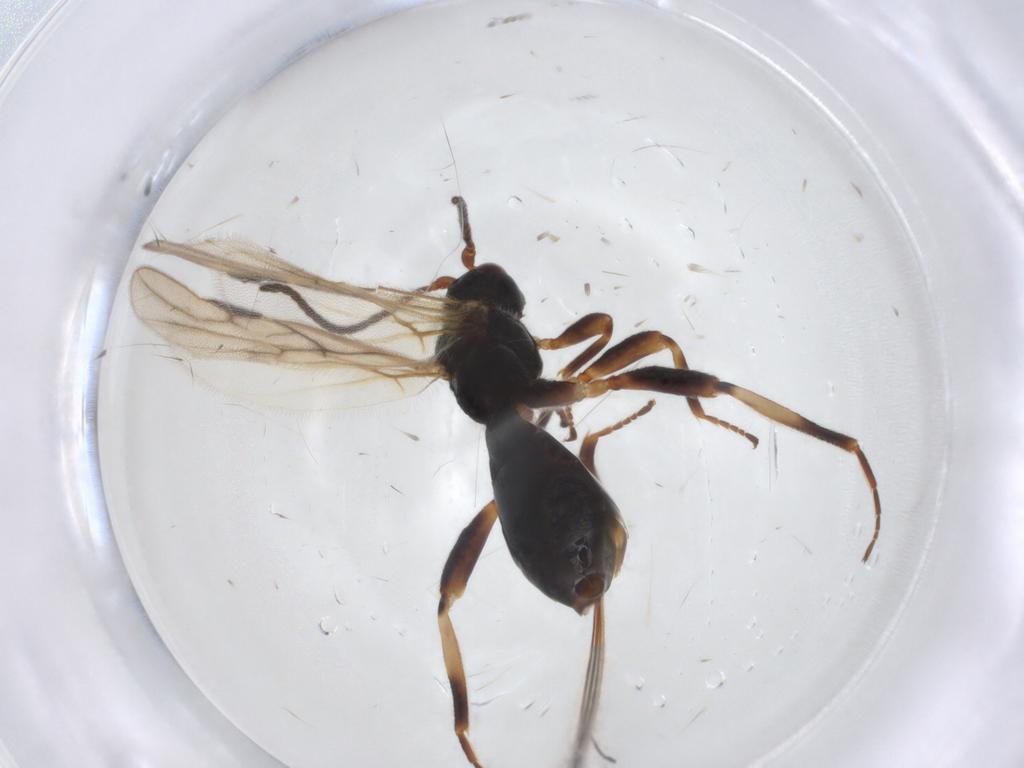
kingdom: Animalia
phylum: Arthropoda
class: Insecta
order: Hymenoptera
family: Braconidae
